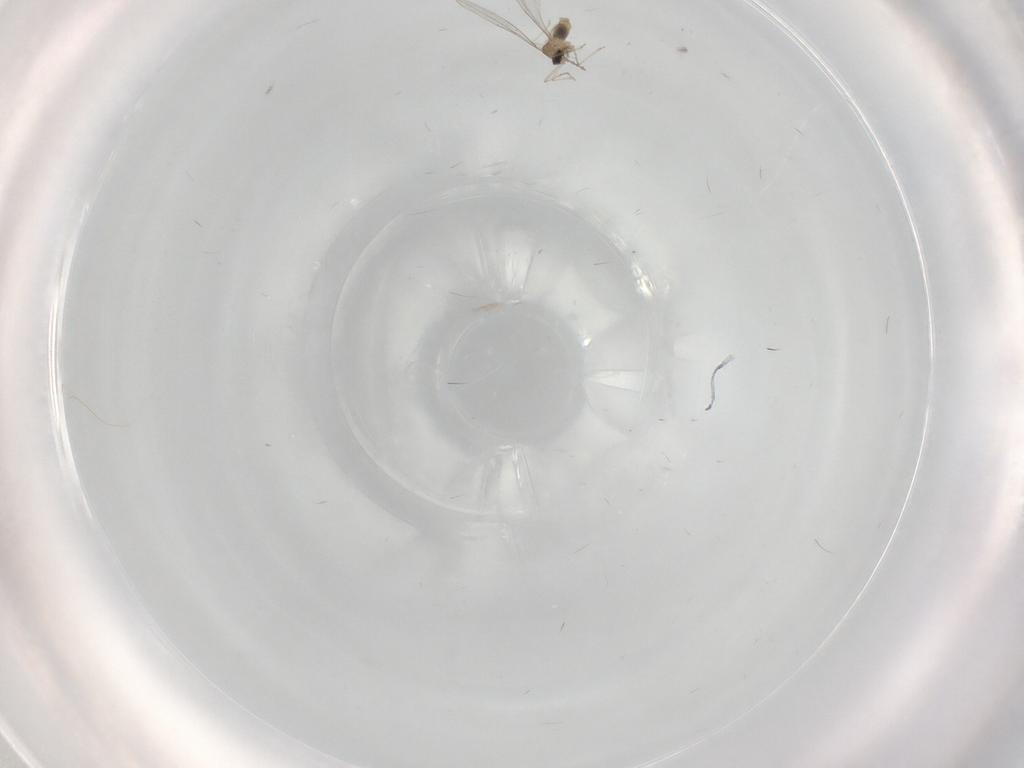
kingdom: Animalia
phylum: Arthropoda
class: Insecta
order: Diptera
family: Cecidomyiidae
